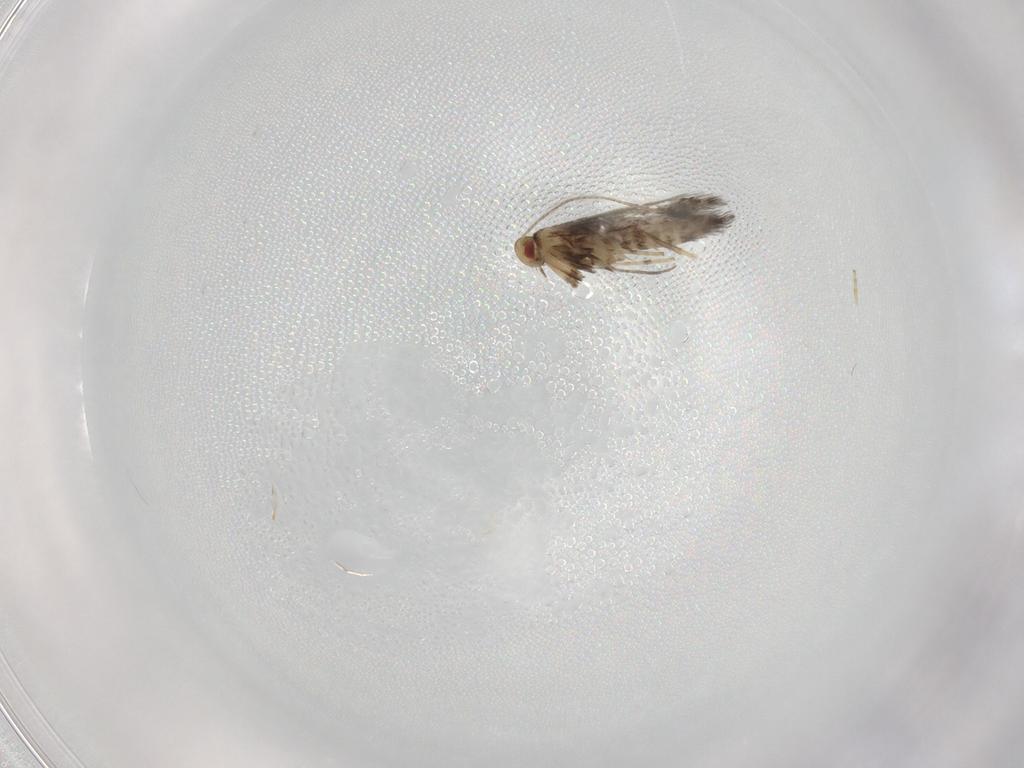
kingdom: Animalia
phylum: Arthropoda
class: Insecta
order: Lepidoptera
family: Gracillariidae
